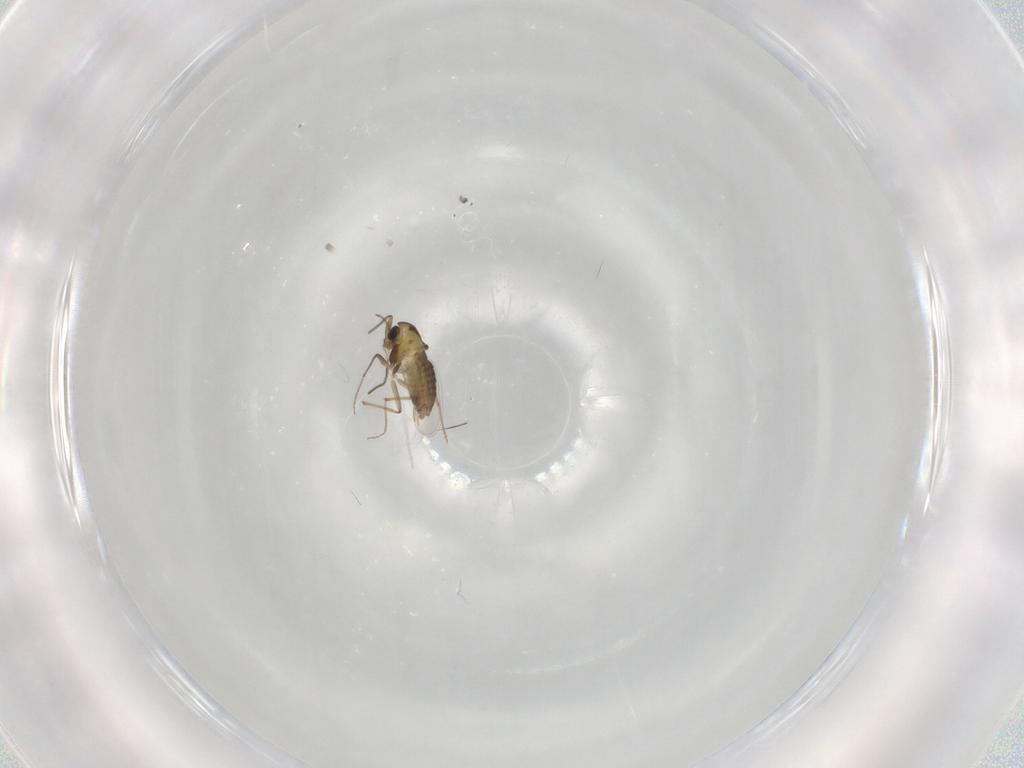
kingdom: Animalia
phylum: Arthropoda
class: Insecta
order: Diptera
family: Chironomidae
